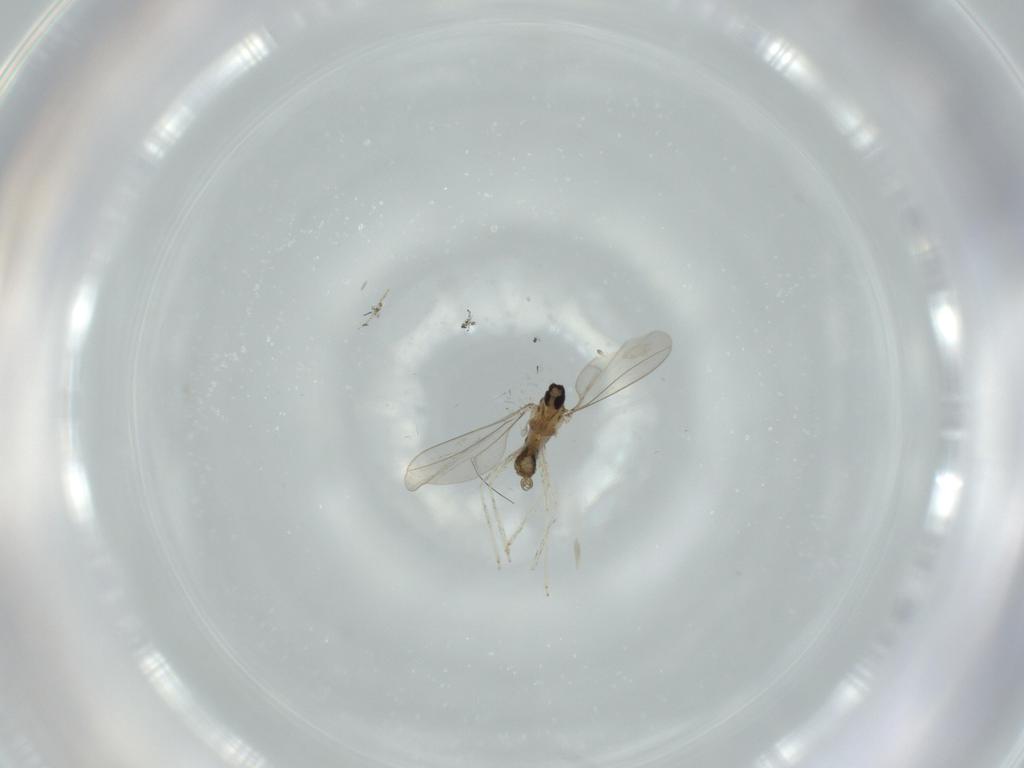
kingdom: Animalia
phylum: Arthropoda
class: Insecta
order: Diptera
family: Cecidomyiidae
